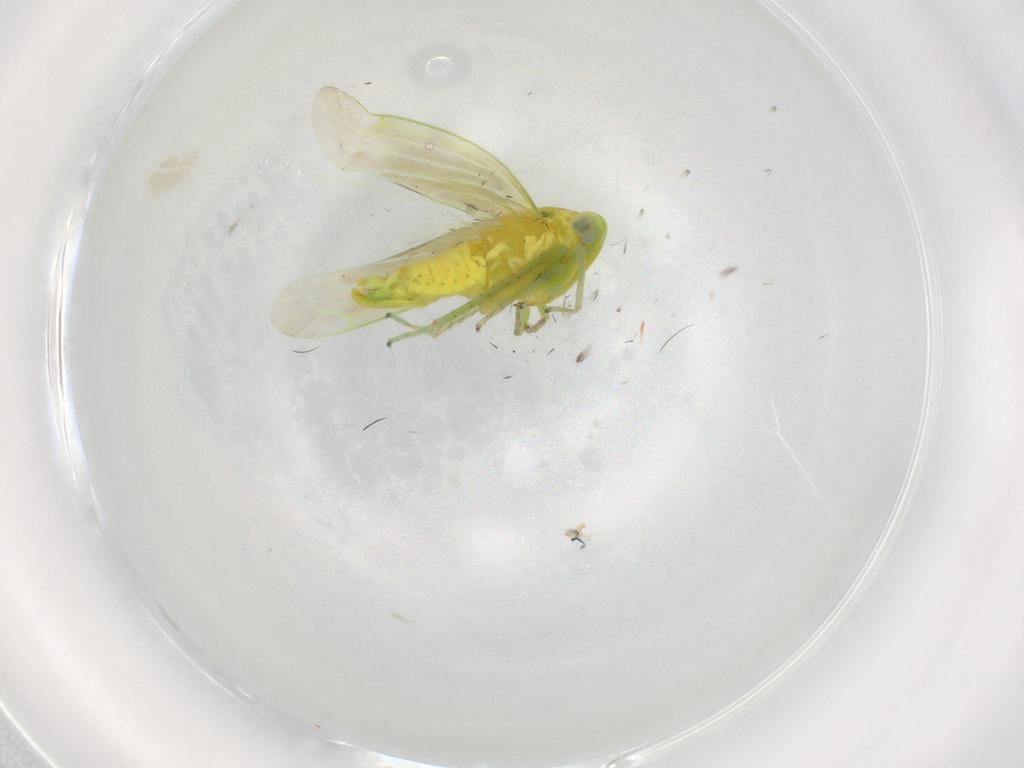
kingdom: Animalia
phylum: Arthropoda
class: Insecta
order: Hemiptera
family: Cicadellidae
